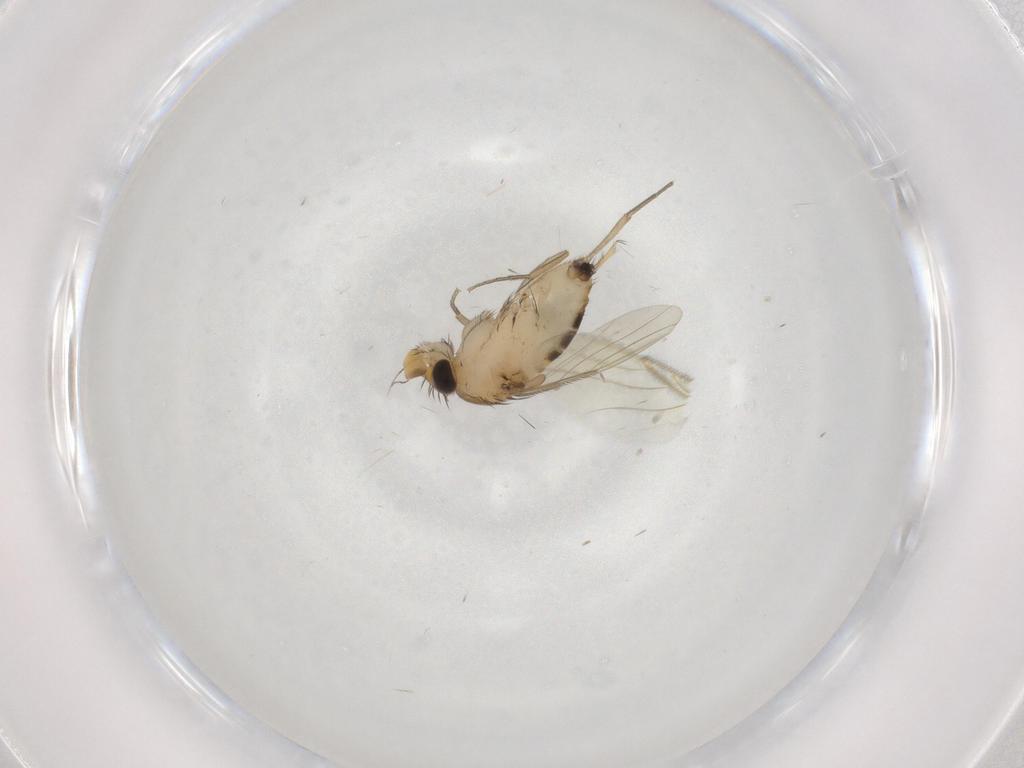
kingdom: Animalia
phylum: Arthropoda
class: Insecta
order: Diptera
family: Phoridae
